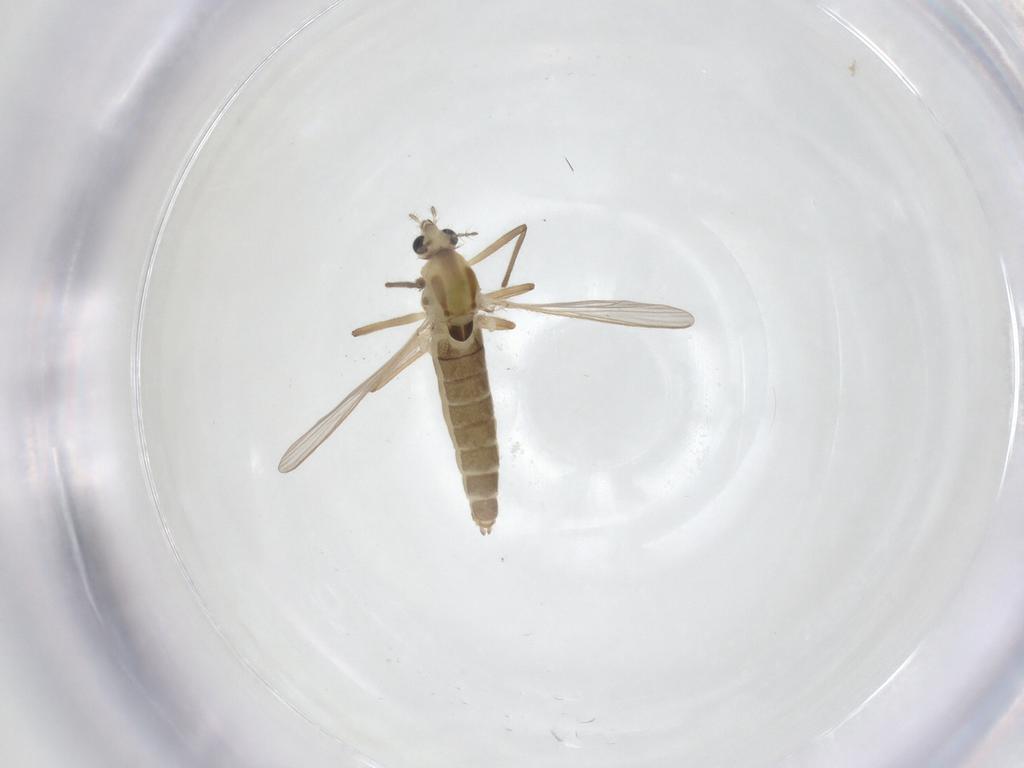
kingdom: Animalia
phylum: Arthropoda
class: Insecta
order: Diptera
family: Chironomidae
